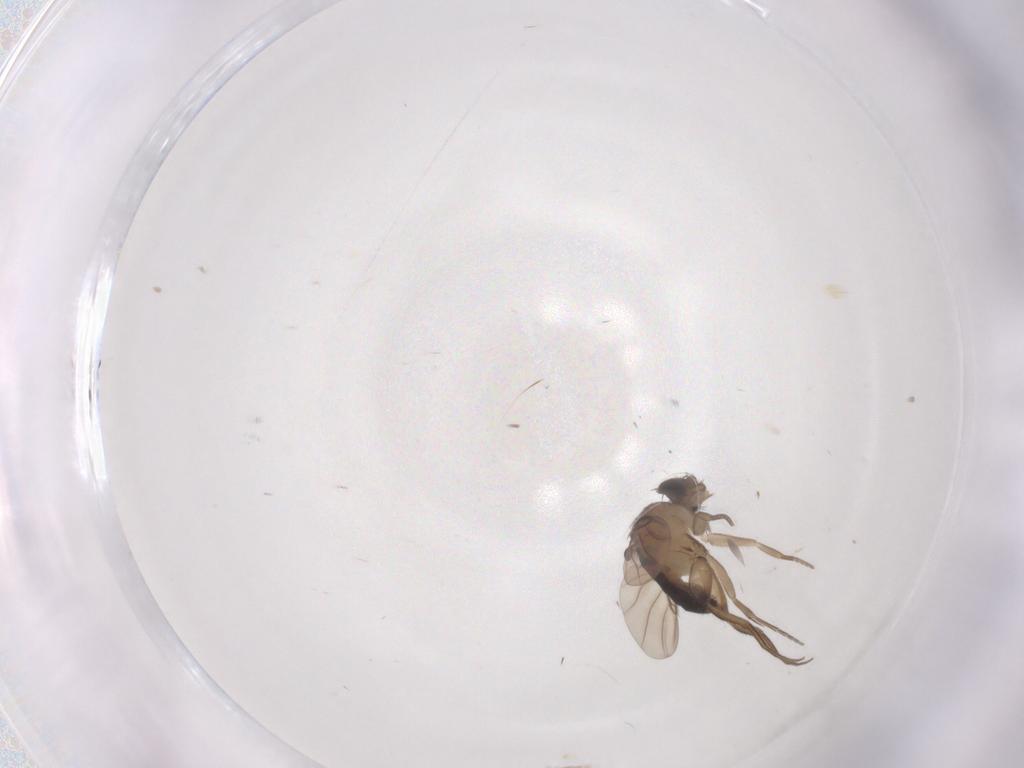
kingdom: Animalia
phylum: Arthropoda
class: Insecta
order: Diptera
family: Phoridae
